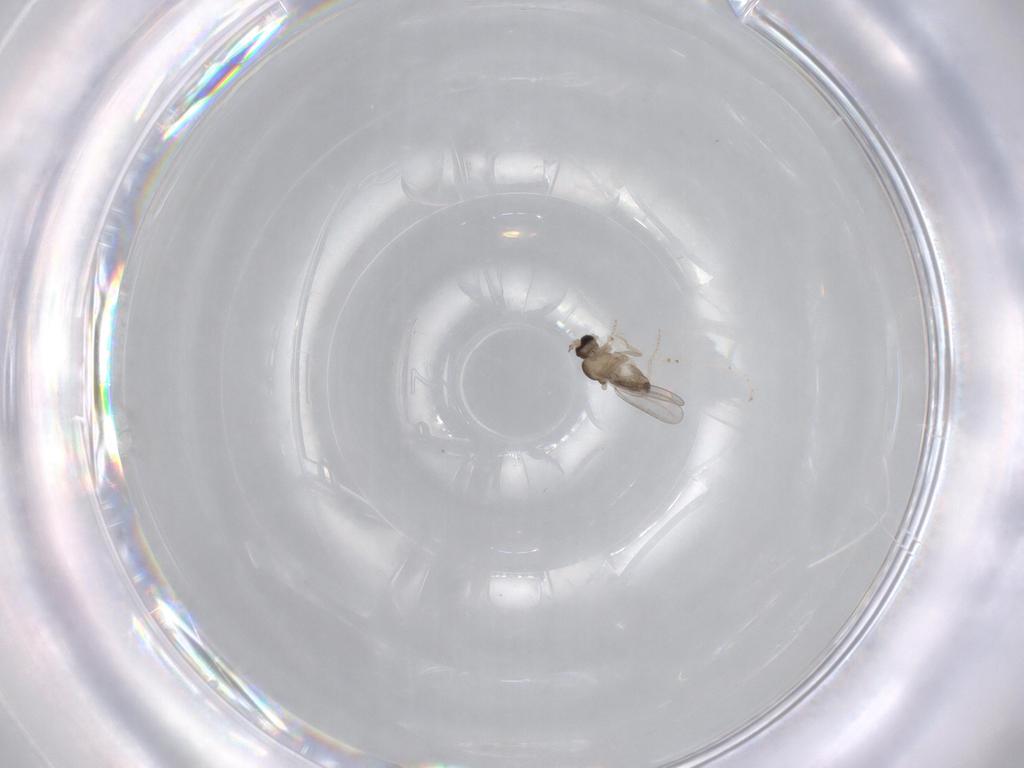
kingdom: Animalia
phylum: Arthropoda
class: Insecta
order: Diptera
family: Cecidomyiidae
